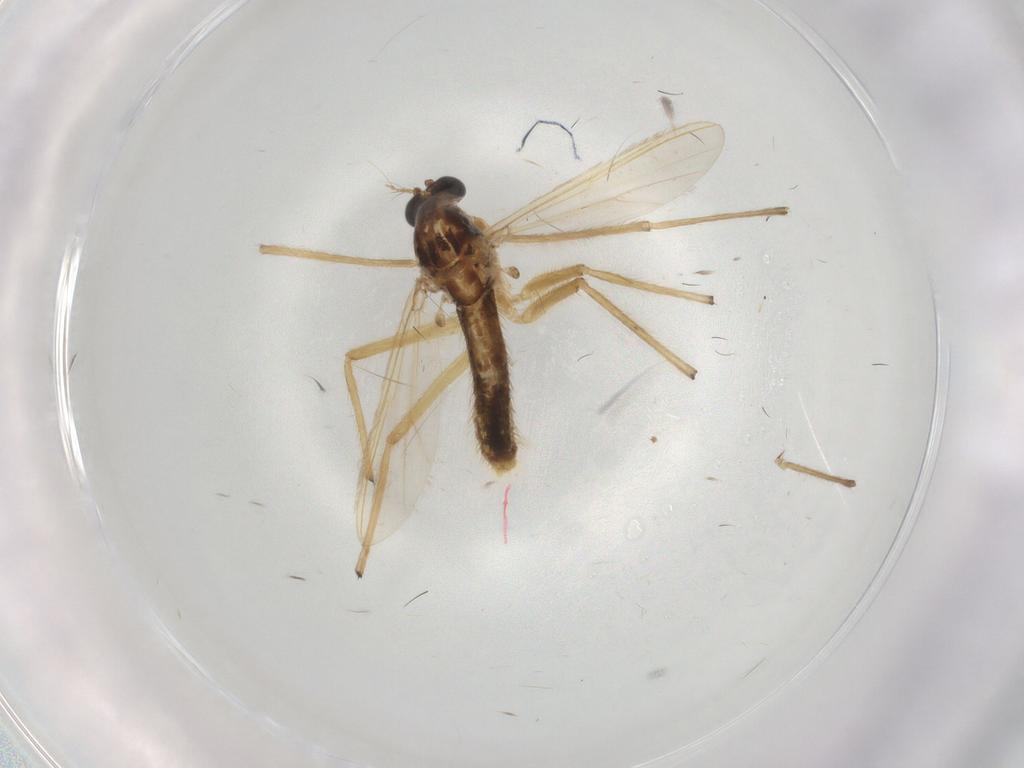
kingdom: Animalia
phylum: Arthropoda
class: Insecta
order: Diptera
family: Chironomidae
